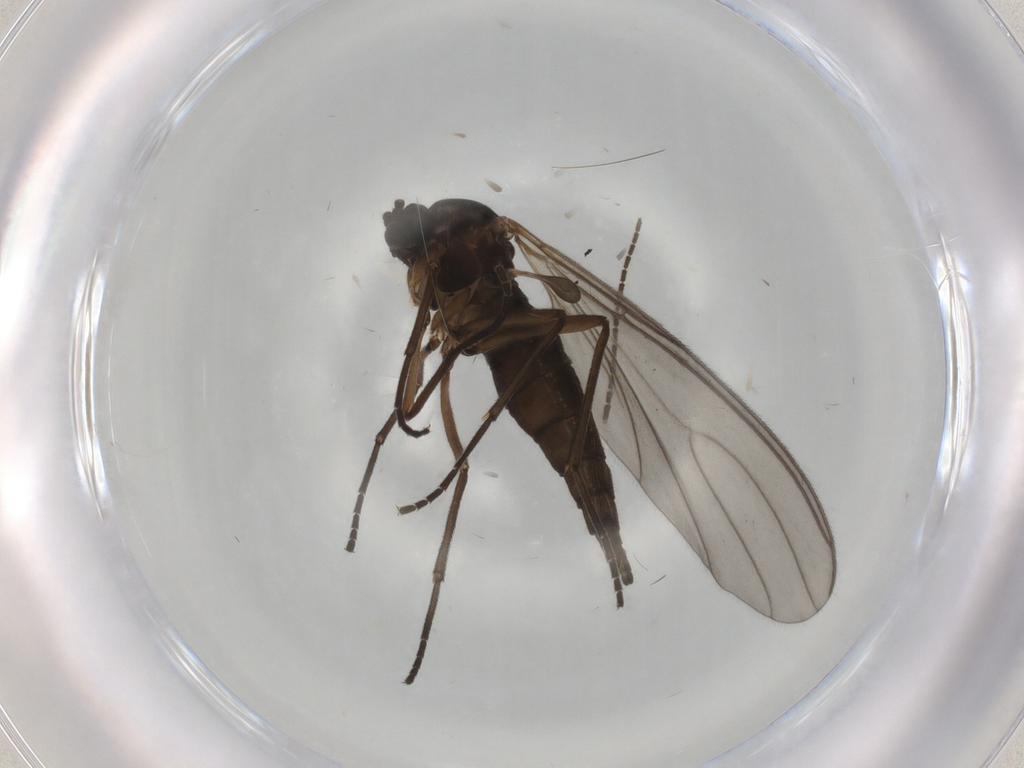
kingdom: Animalia
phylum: Arthropoda
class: Insecta
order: Diptera
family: Sciaridae
